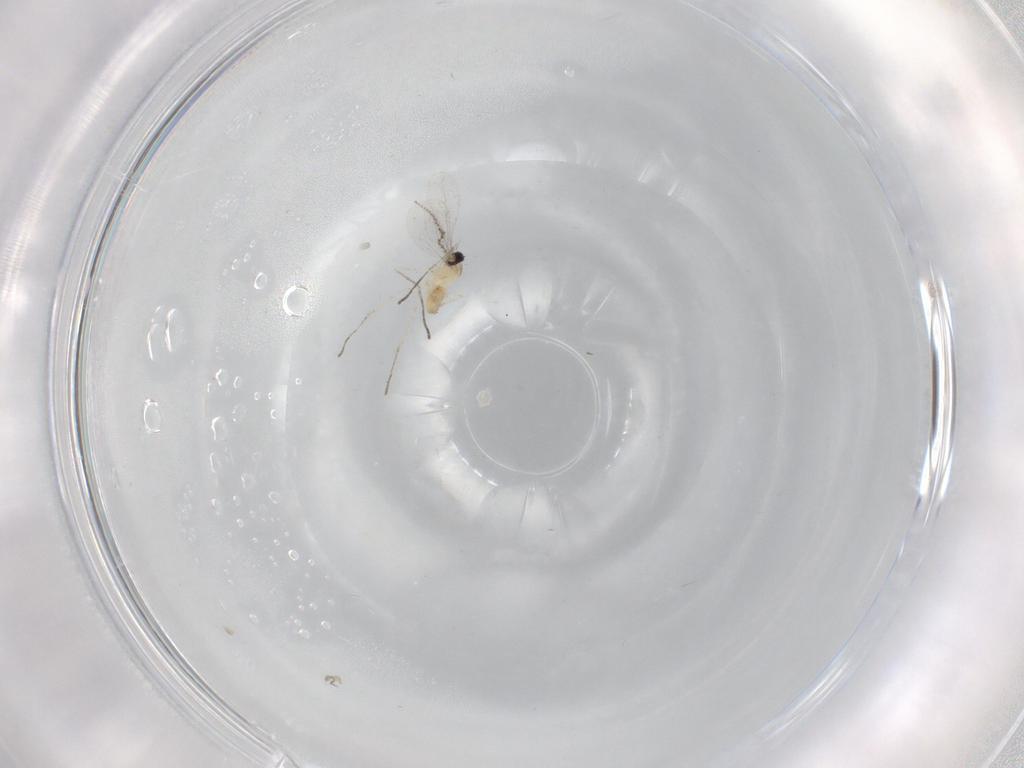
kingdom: Animalia
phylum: Arthropoda
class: Insecta
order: Diptera
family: Cecidomyiidae
